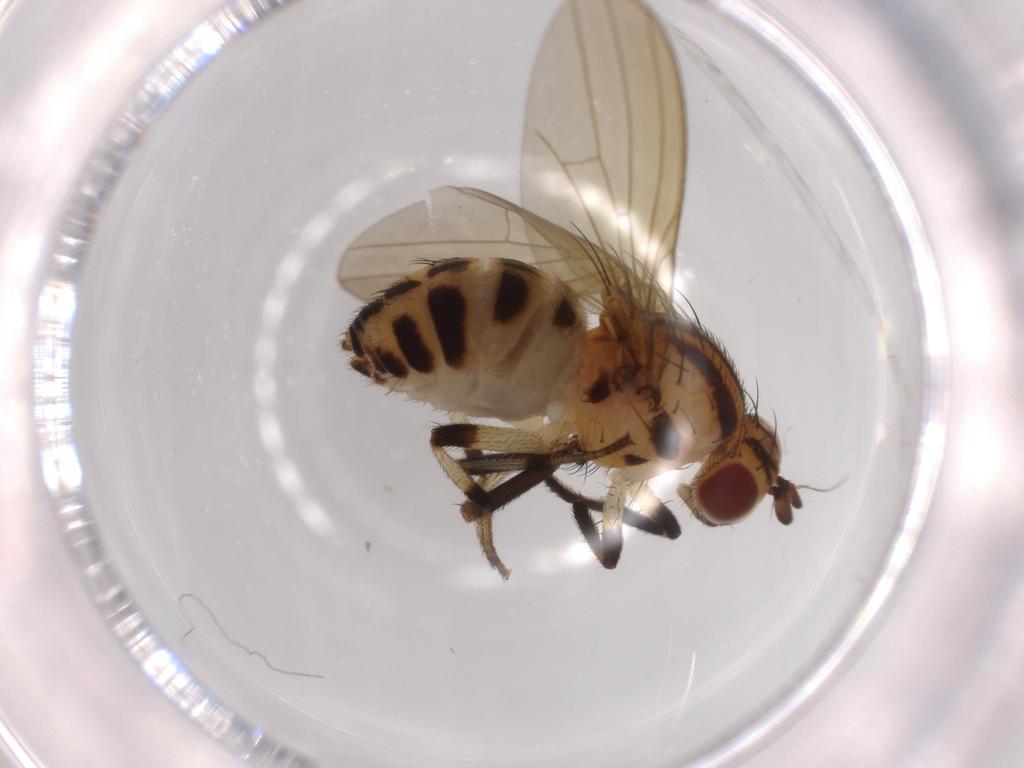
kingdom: Animalia
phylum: Arthropoda
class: Insecta
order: Diptera
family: Lauxaniidae
